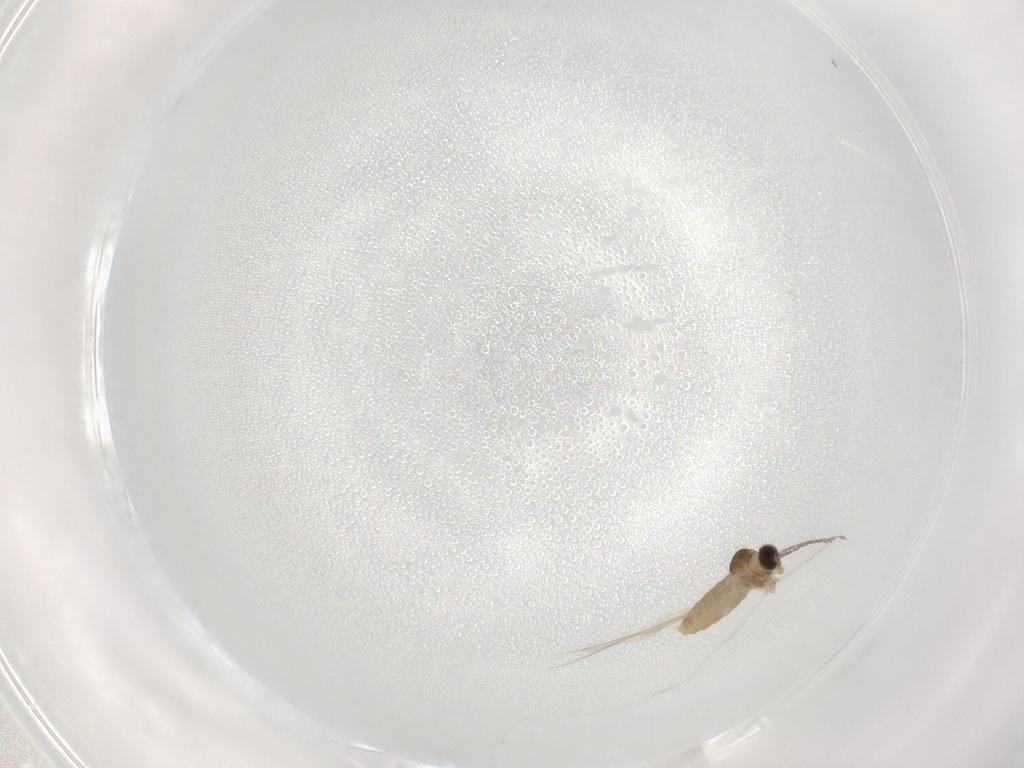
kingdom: Animalia
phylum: Arthropoda
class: Insecta
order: Diptera
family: Cecidomyiidae
